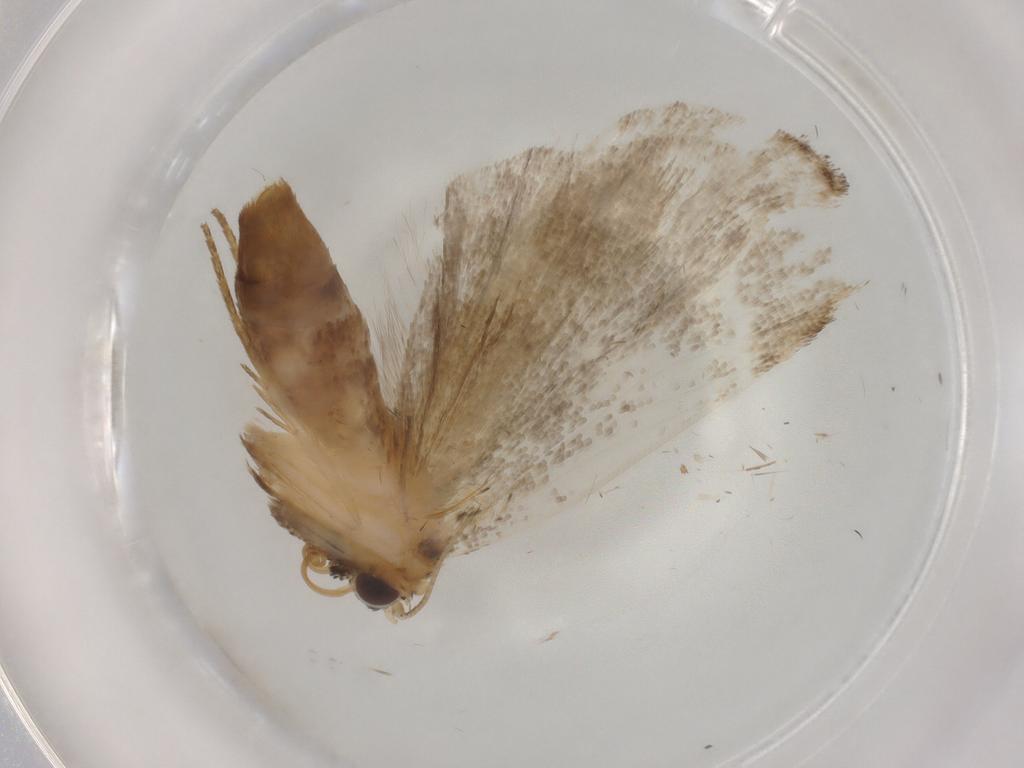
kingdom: Animalia
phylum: Arthropoda
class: Insecta
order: Lepidoptera
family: Erebidae
